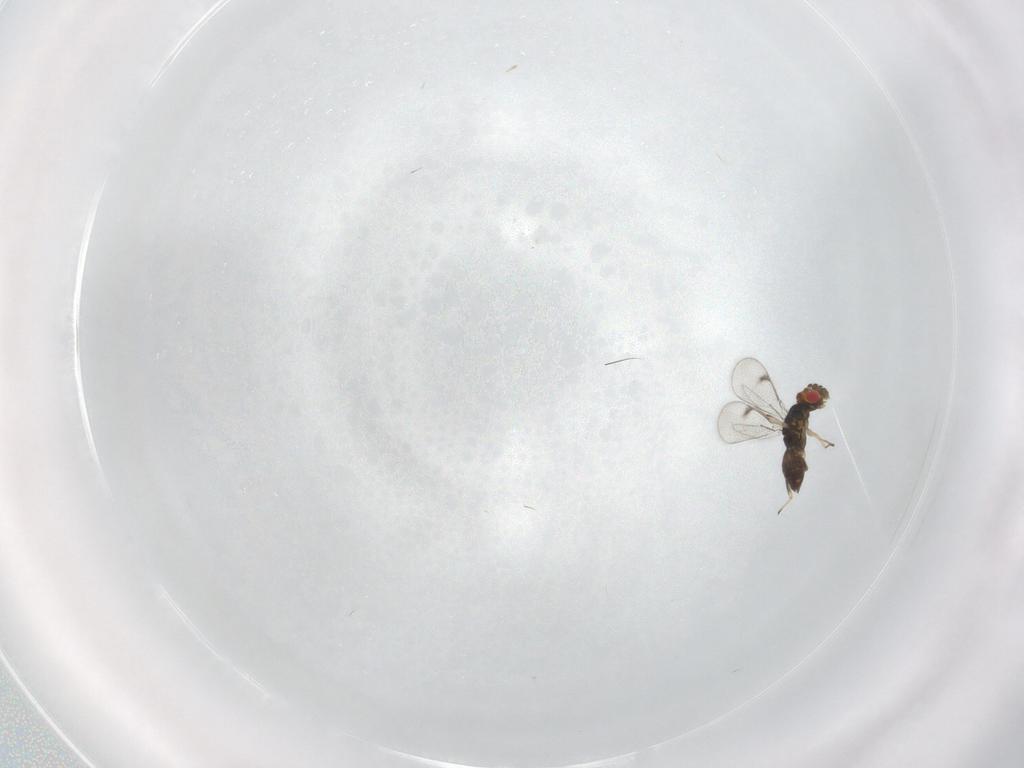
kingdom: Animalia
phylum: Arthropoda
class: Insecta
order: Hymenoptera
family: Eulophidae
